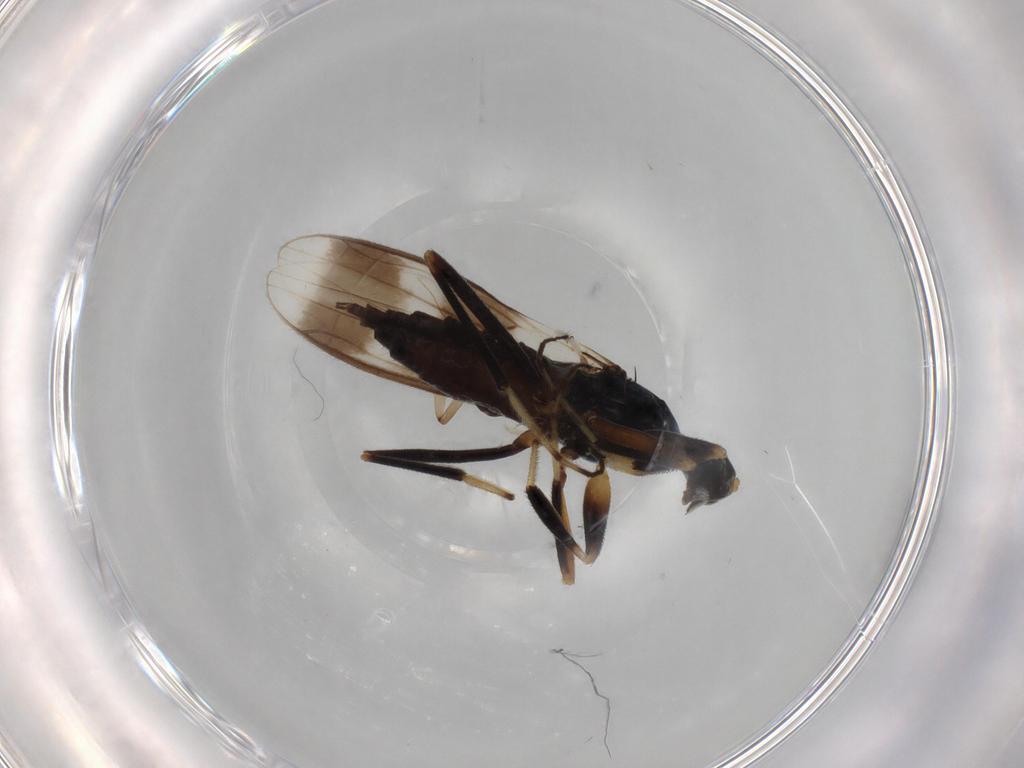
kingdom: Animalia
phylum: Arthropoda
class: Insecta
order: Diptera
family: Hybotidae
